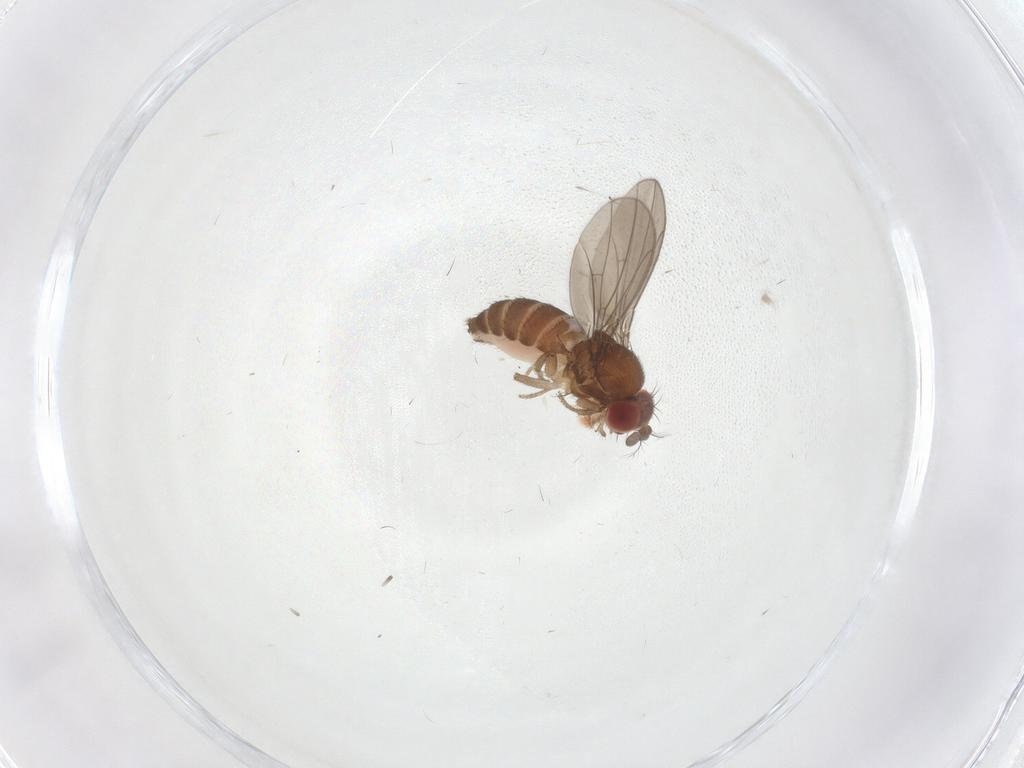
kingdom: Animalia
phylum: Arthropoda
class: Insecta
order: Diptera
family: Drosophilidae
